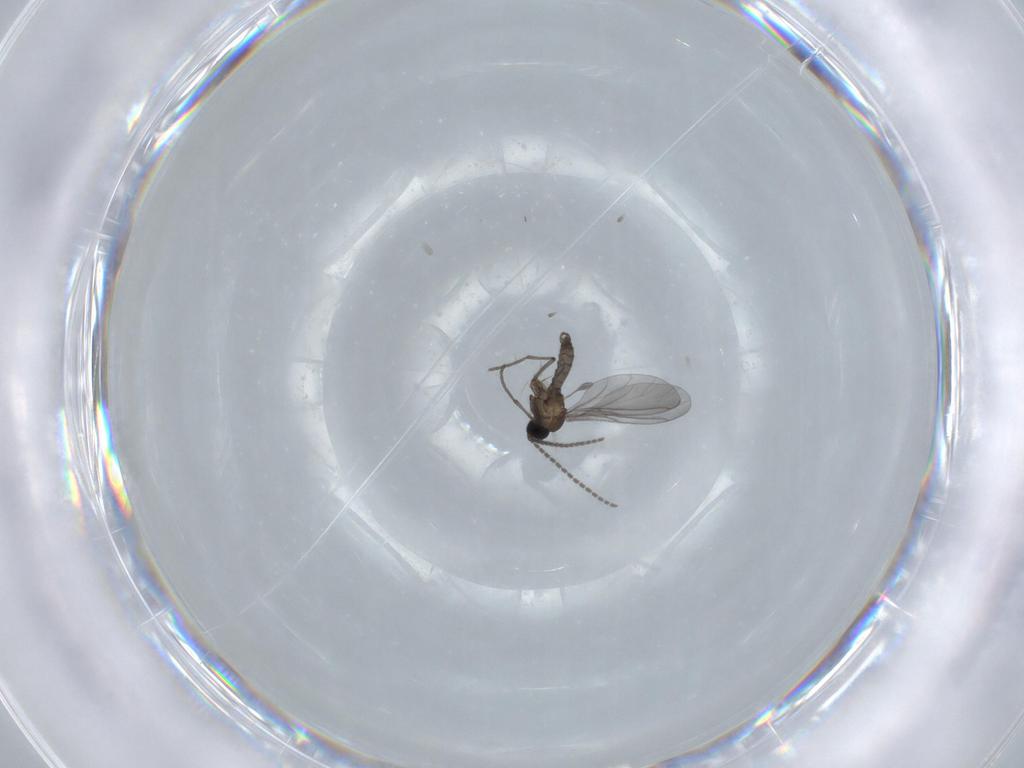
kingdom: Animalia
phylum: Arthropoda
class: Insecta
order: Diptera
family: Sciaridae
